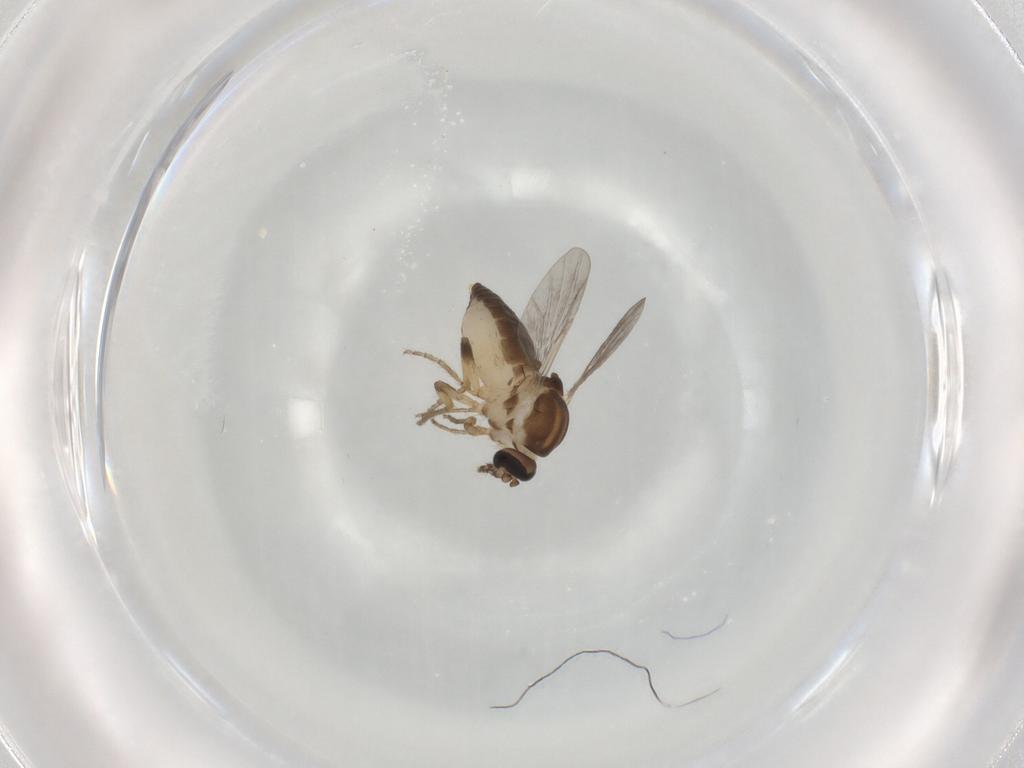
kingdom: Animalia
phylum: Arthropoda
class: Insecta
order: Diptera
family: Ceratopogonidae
